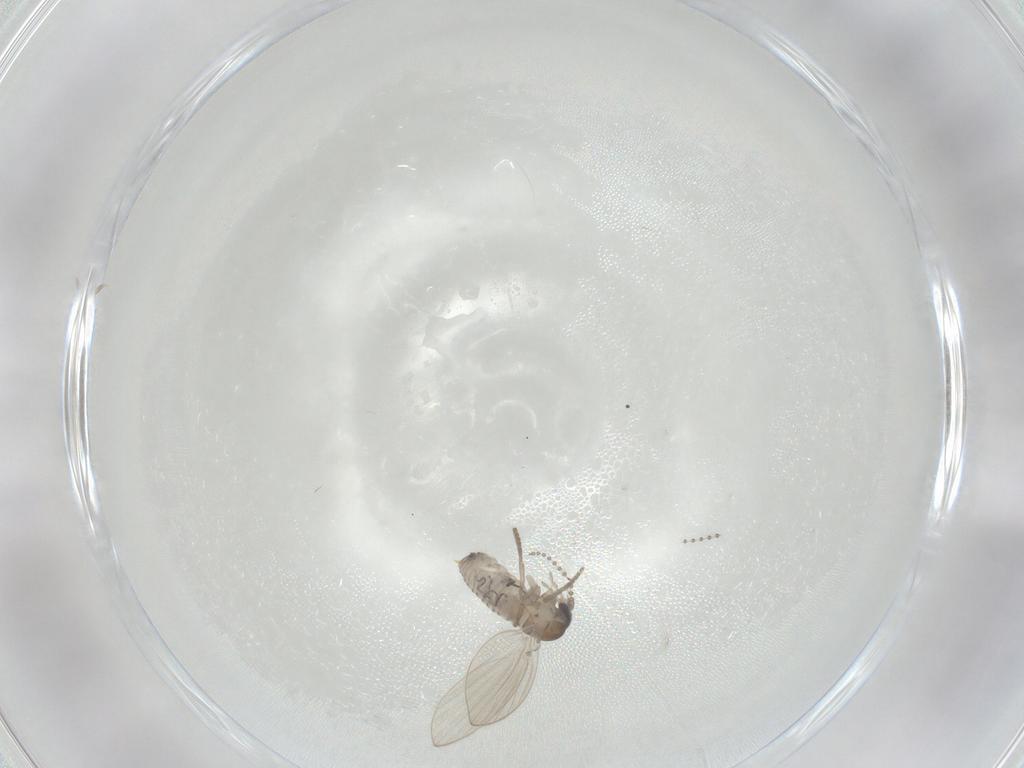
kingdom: Animalia
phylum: Arthropoda
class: Insecta
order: Diptera
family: Psychodidae
